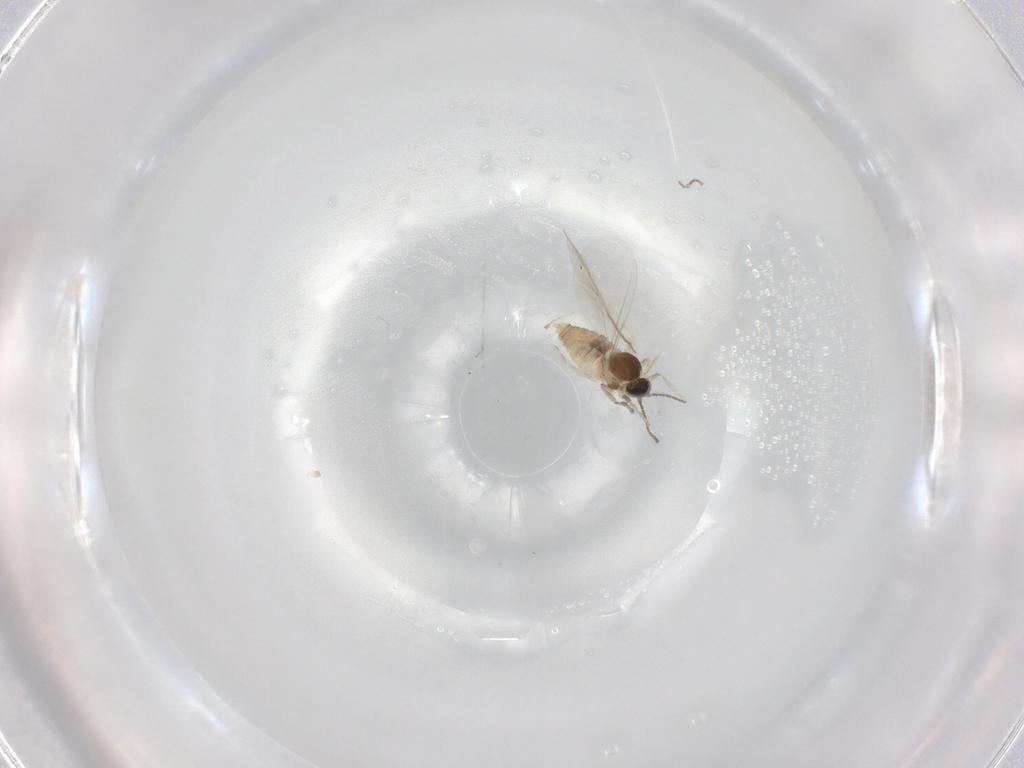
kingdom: Animalia
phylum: Arthropoda
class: Insecta
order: Diptera
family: Cecidomyiidae
